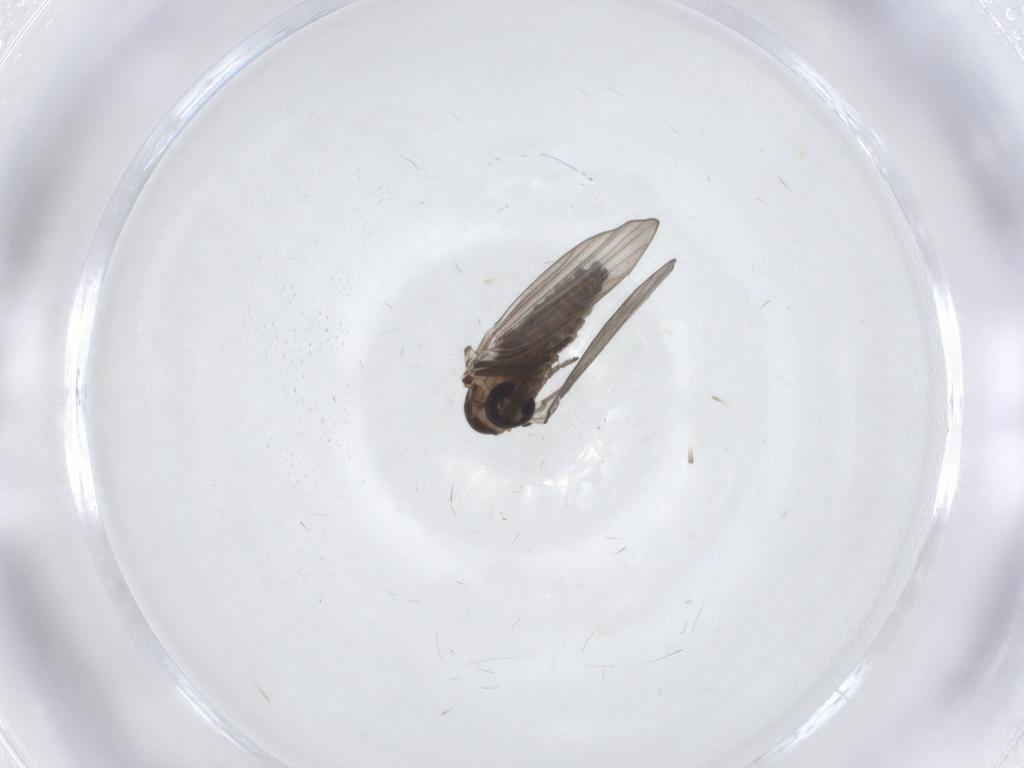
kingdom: Animalia
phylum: Arthropoda
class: Insecta
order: Diptera
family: Psychodidae
